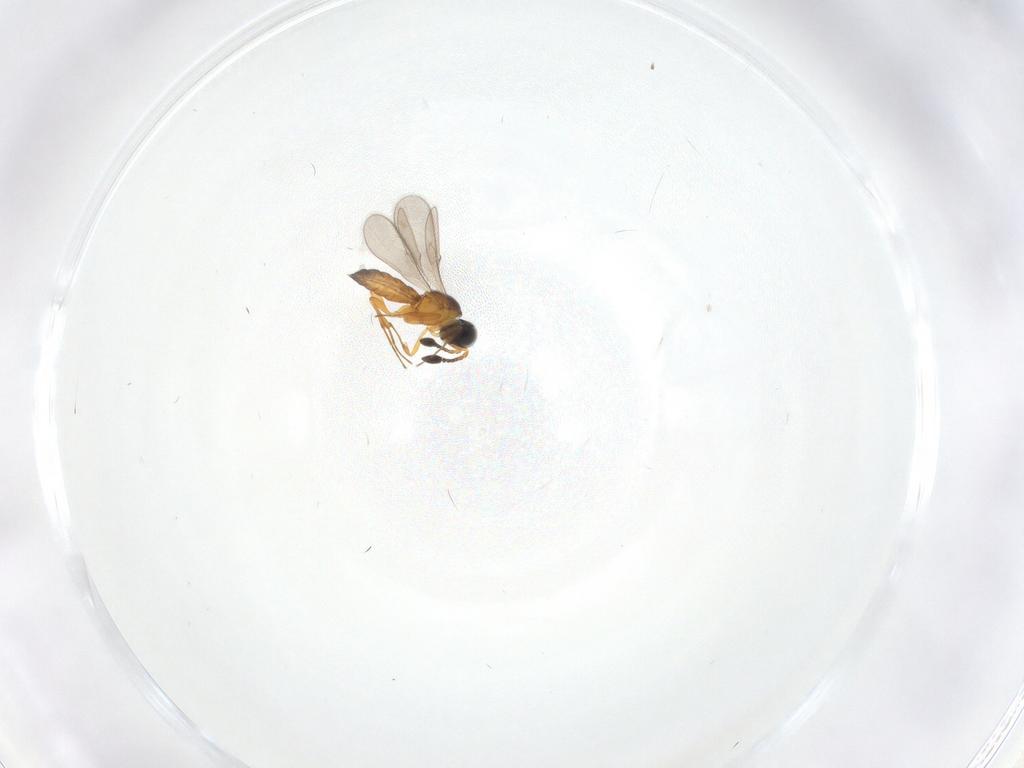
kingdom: Animalia
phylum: Arthropoda
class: Insecta
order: Hymenoptera
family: Scelionidae
